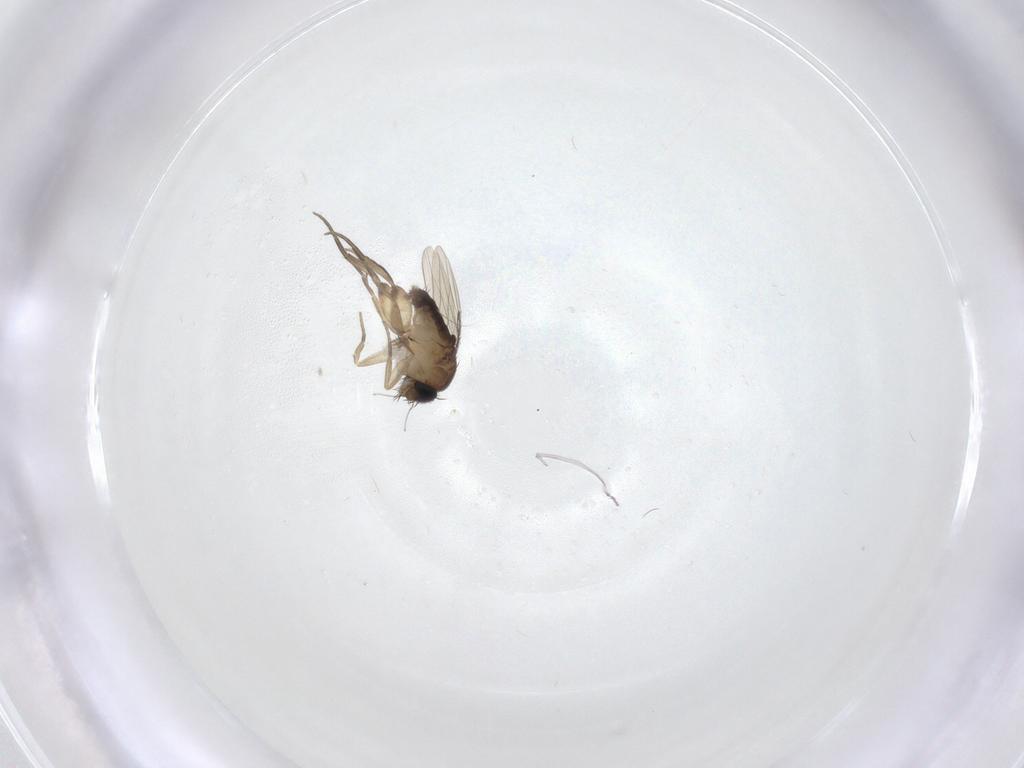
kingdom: Animalia
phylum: Arthropoda
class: Insecta
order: Diptera
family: Phoridae
